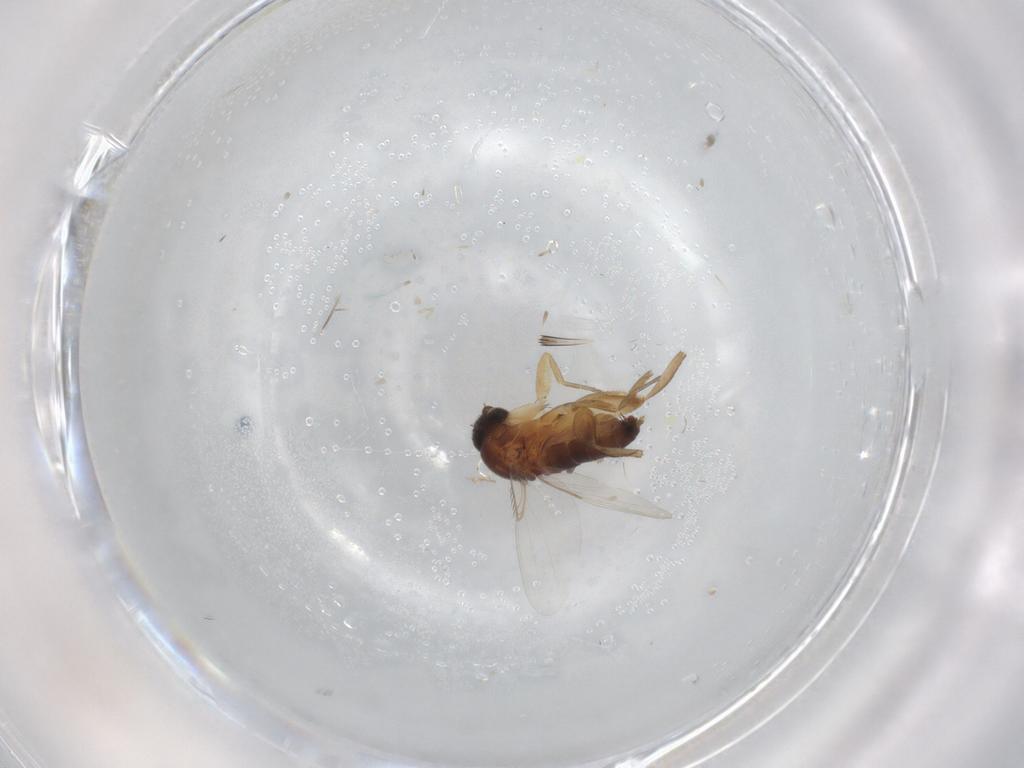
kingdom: Animalia
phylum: Arthropoda
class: Insecta
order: Diptera
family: Phoridae
